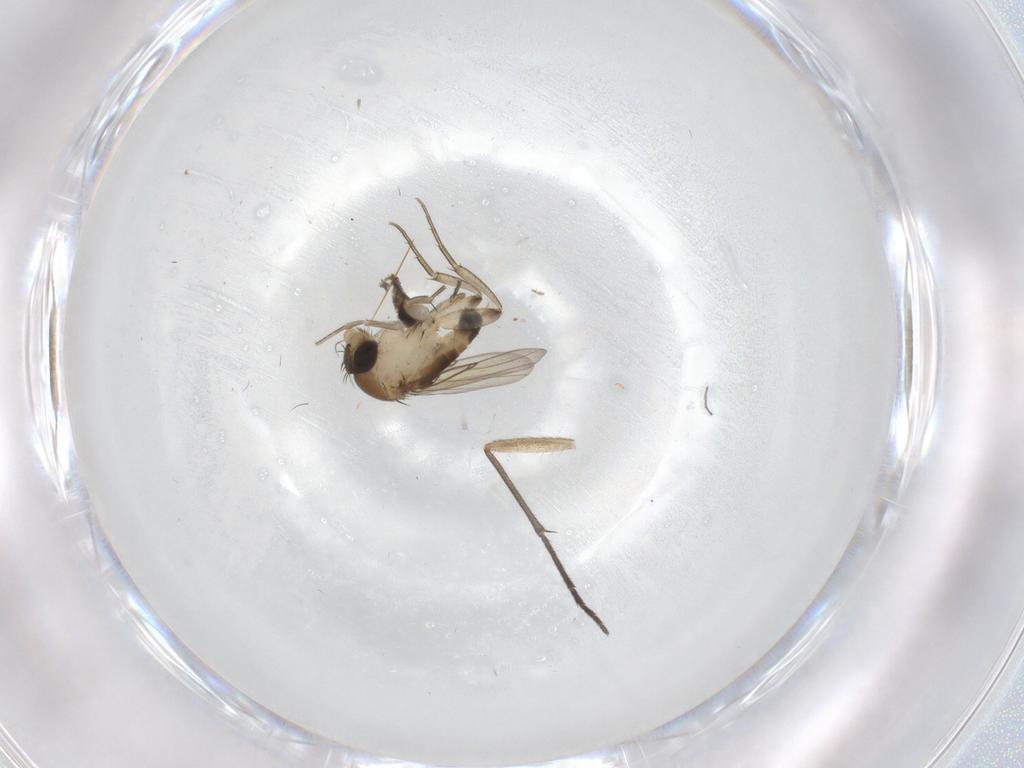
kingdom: Animalia
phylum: Arthropoda
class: Insecta
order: Diptera
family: Sciaridae
